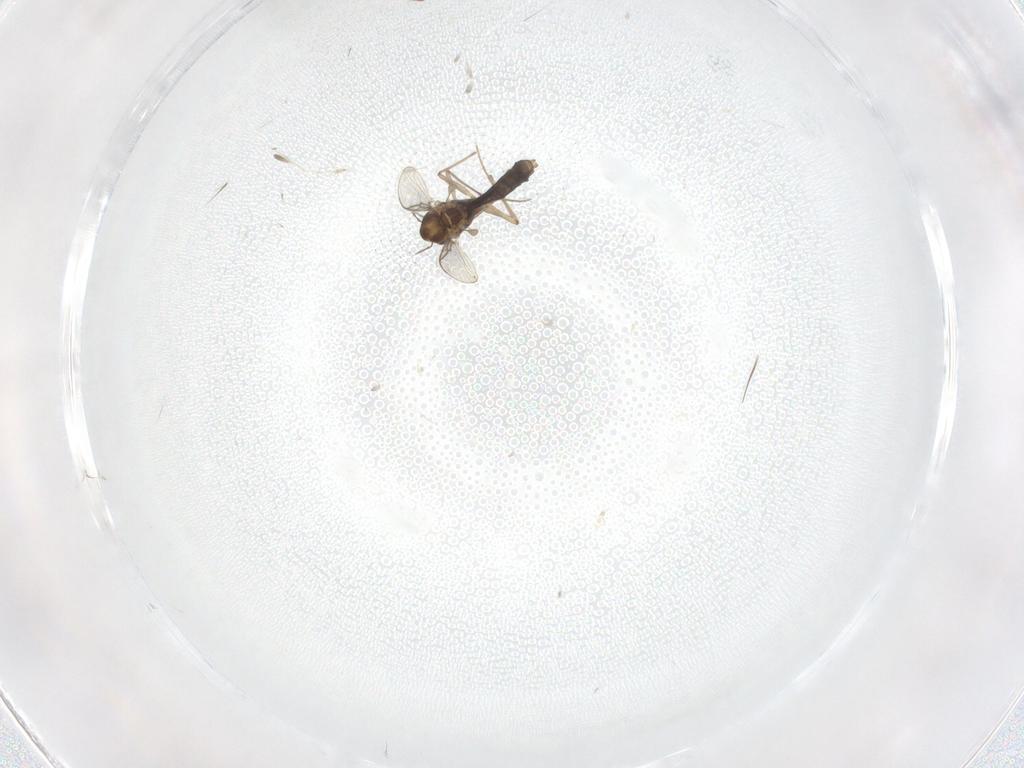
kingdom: Animalia
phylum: Arthropoda
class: Insecta
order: Diptera
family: Chironomidae
